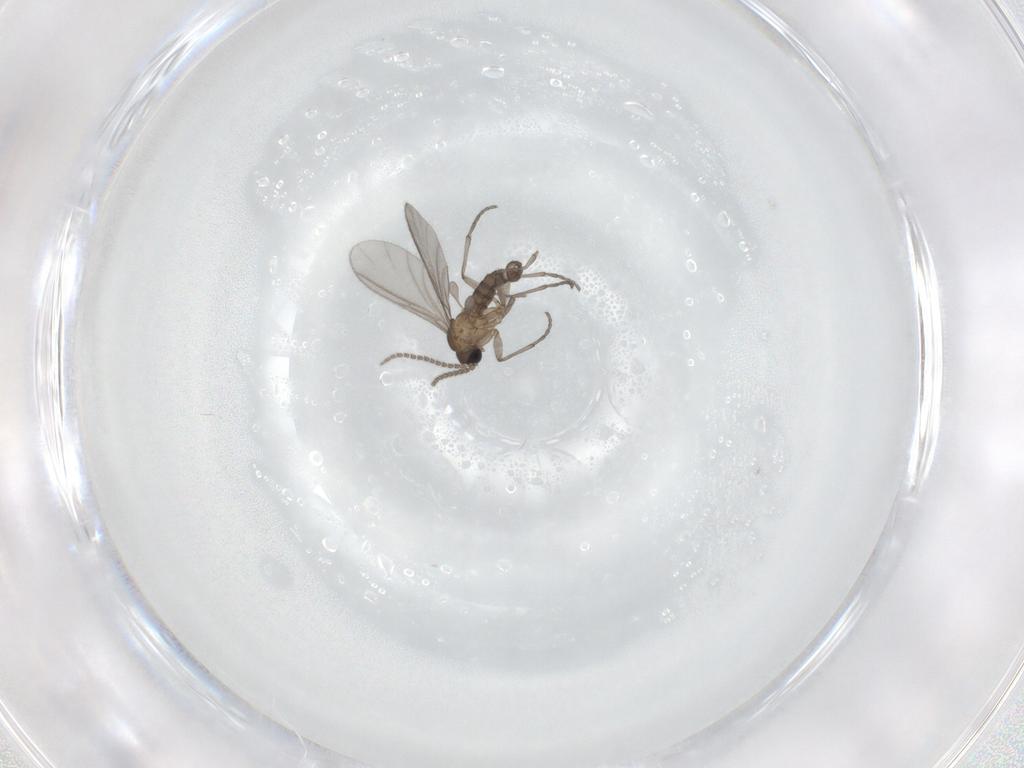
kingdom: Animalia
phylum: Arthropoda
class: Insecta
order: Diptera
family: Sciaridae
